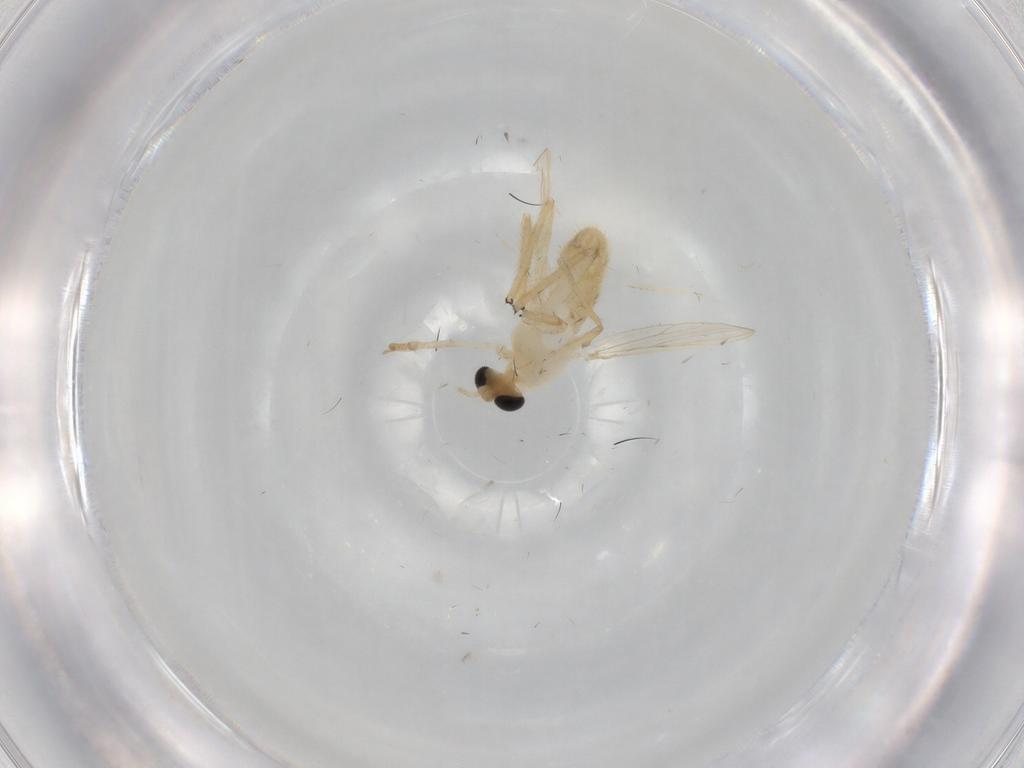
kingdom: Animalia
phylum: Arthropoda
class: Insecta
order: Diptera
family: Chironomidae
